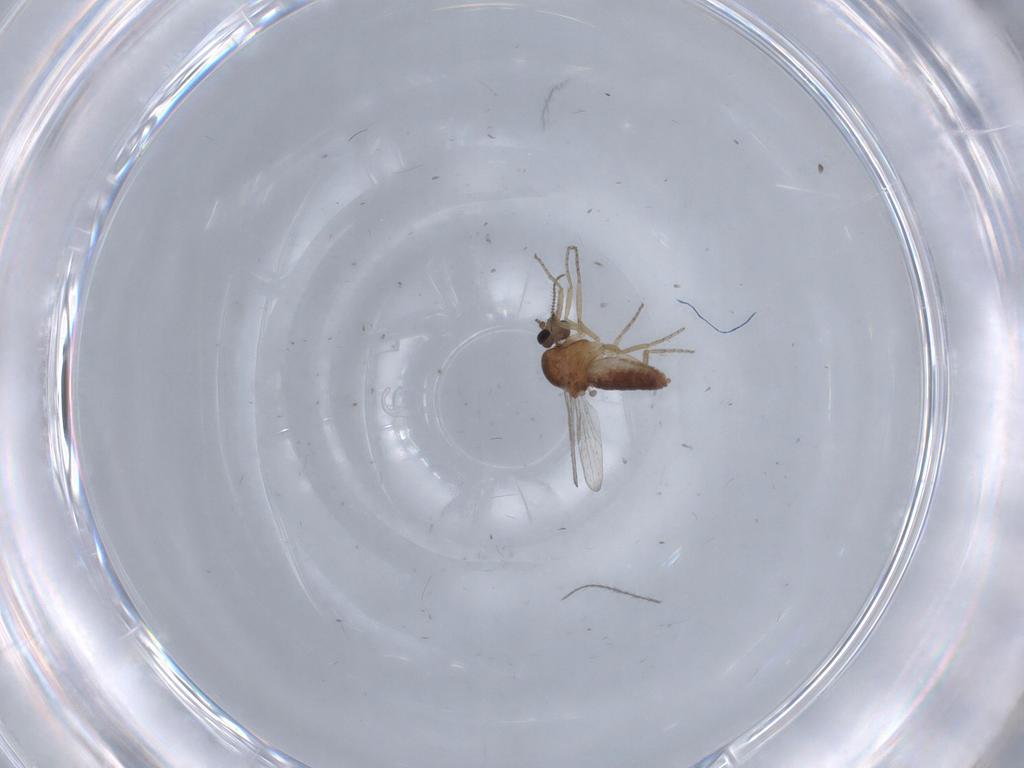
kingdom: Animalia
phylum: Arthropoda
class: Insecta
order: Diptera
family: Ceratopogonidae
